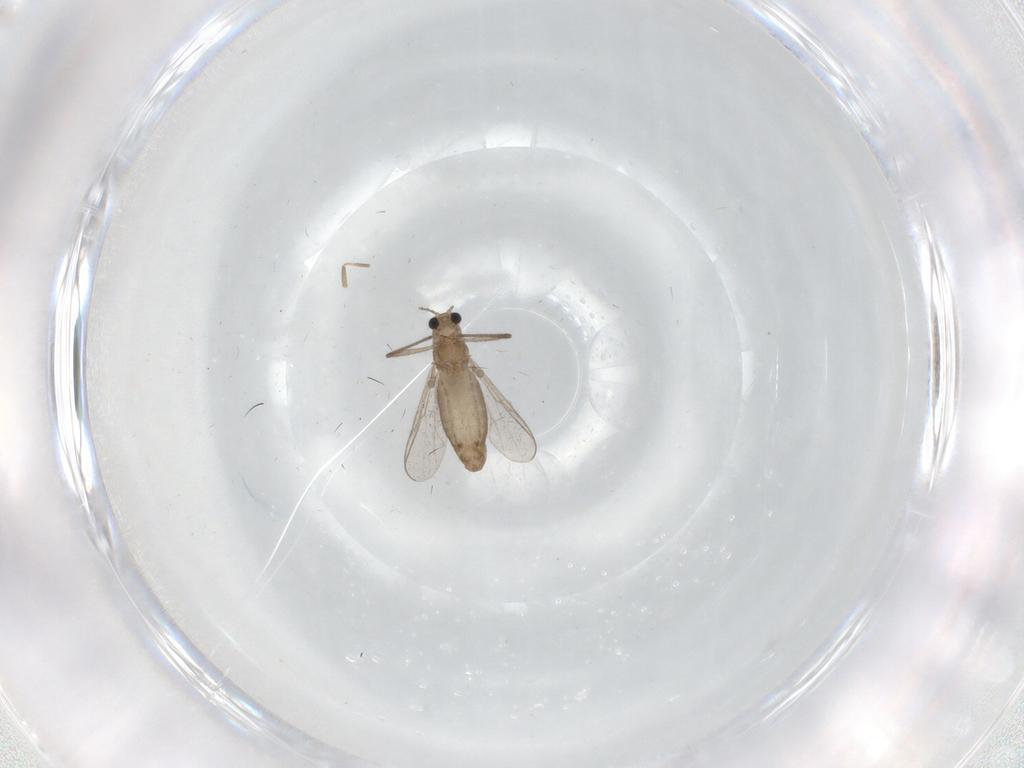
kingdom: Animalia
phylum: Arthropoda
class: Insecta
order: Diptera
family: Chironomidae
